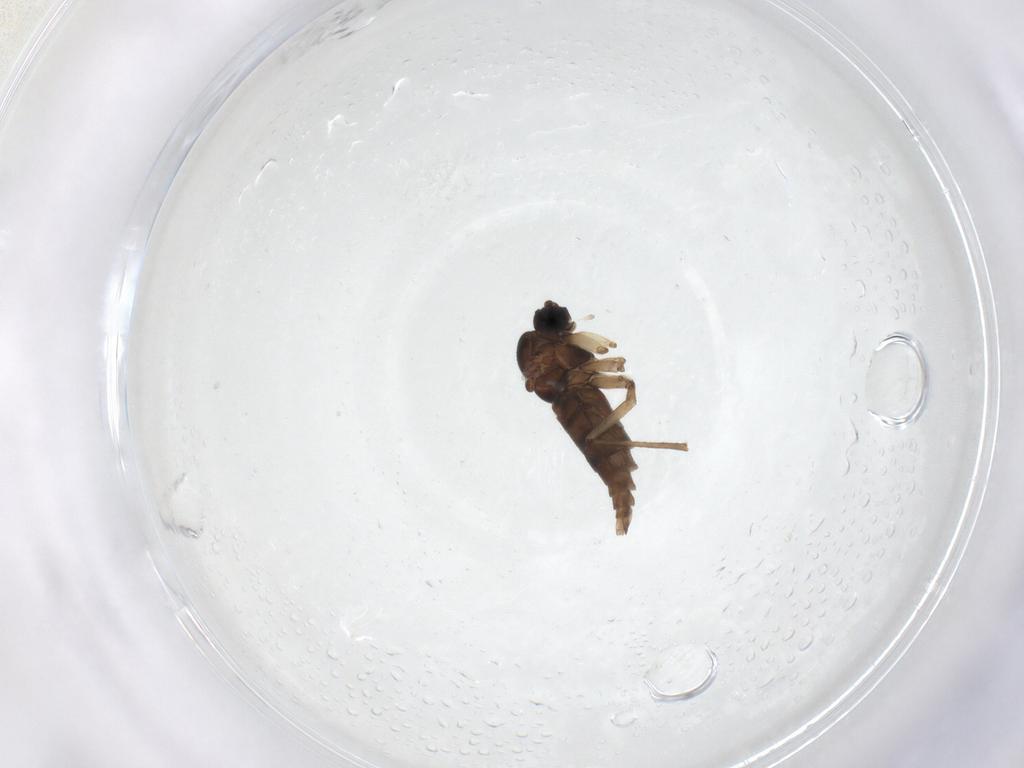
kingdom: Animalia
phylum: Arthropoda
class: Insecta
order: Diptera
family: Sciaridae
